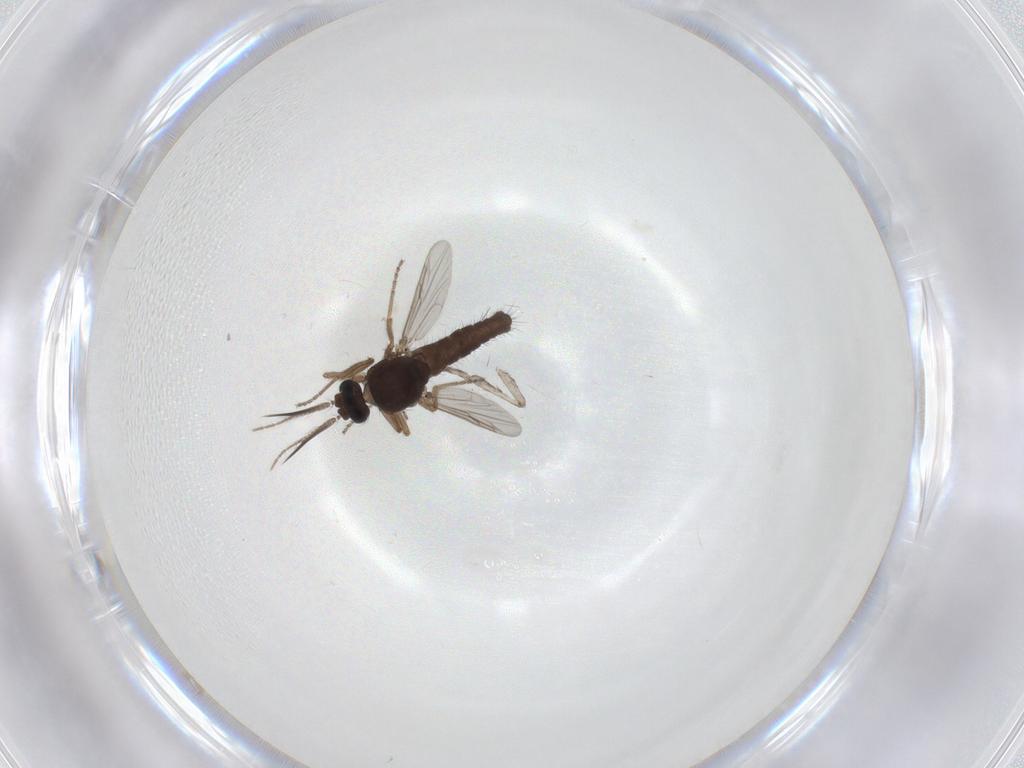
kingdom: Animalia
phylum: Arthropoda
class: Insecta
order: Diptera
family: Ceratopogonidae
